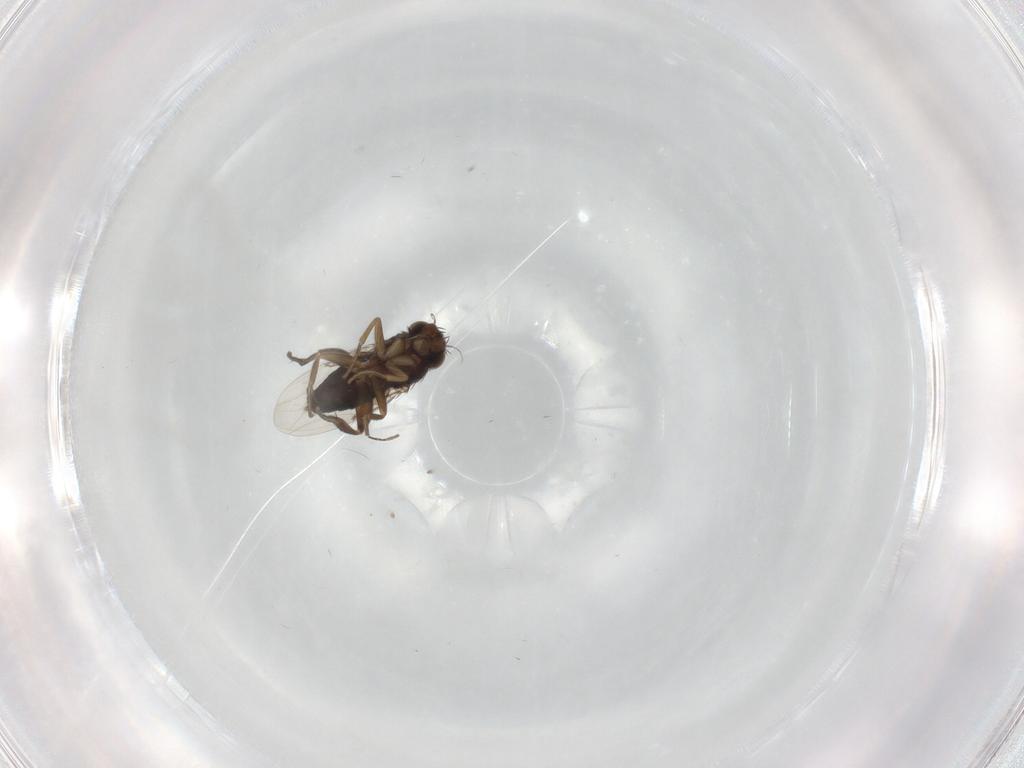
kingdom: Animalia
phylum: Arthropoda
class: Insecta
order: Diptera
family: Phoridae
